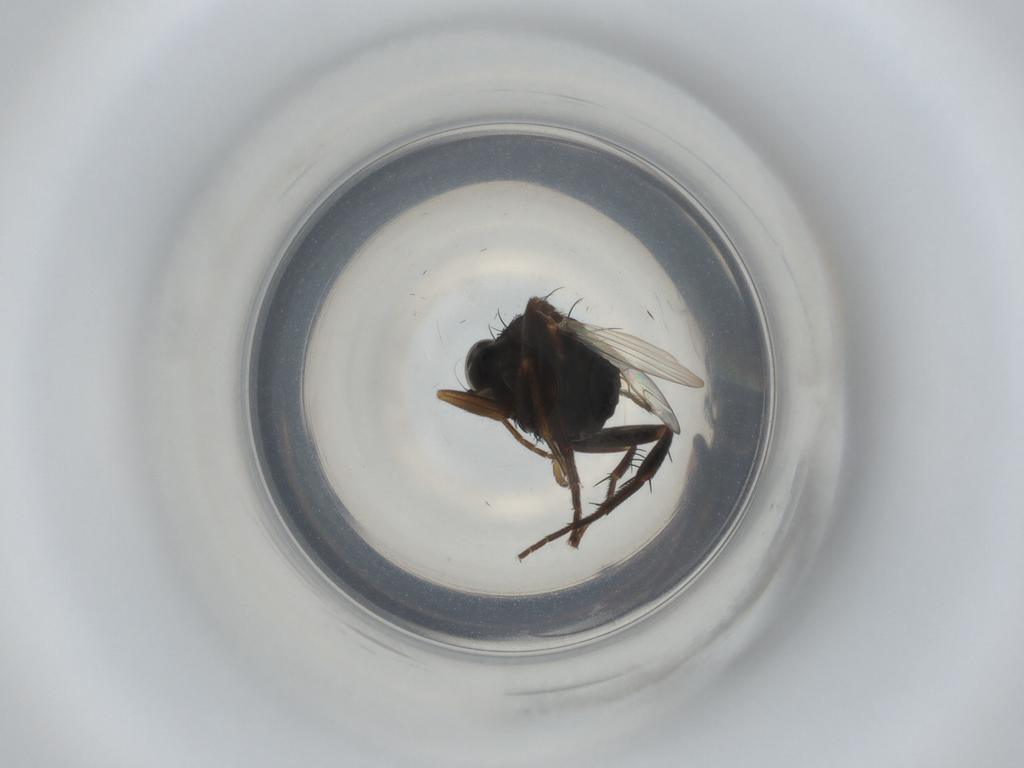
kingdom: Animalia
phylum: Arthropoda
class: Insecta
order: Diptera
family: Phoridae
